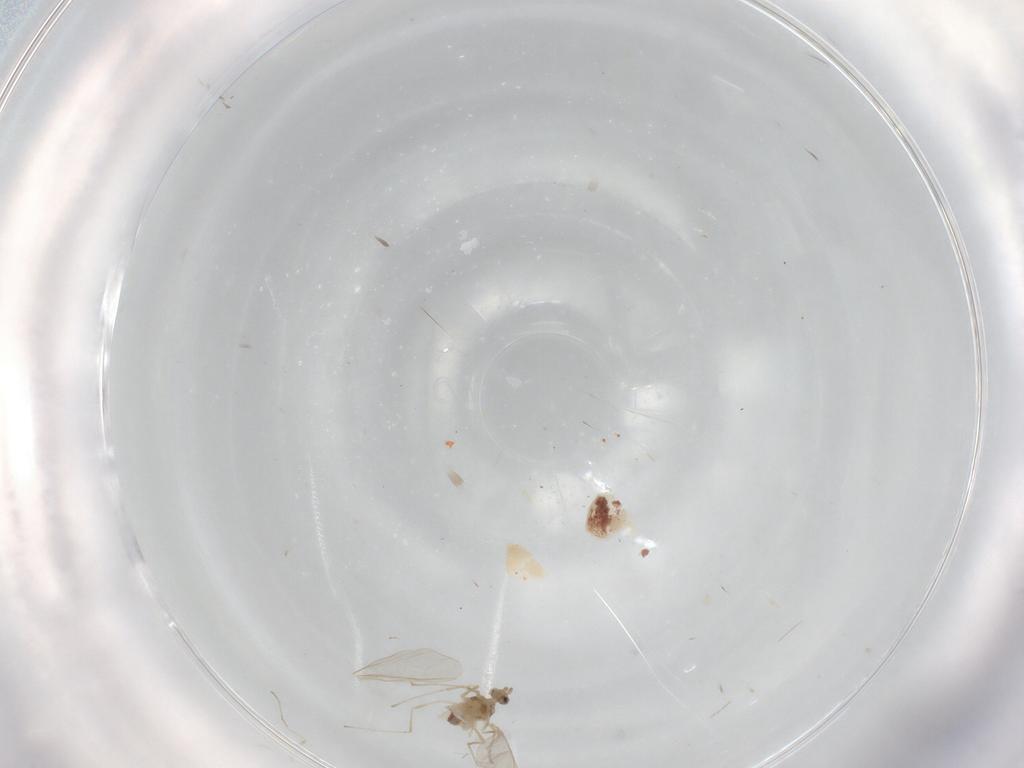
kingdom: Animalia
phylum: Arthropoda
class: Insecta
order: Diptera
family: Cecidomyiidae
